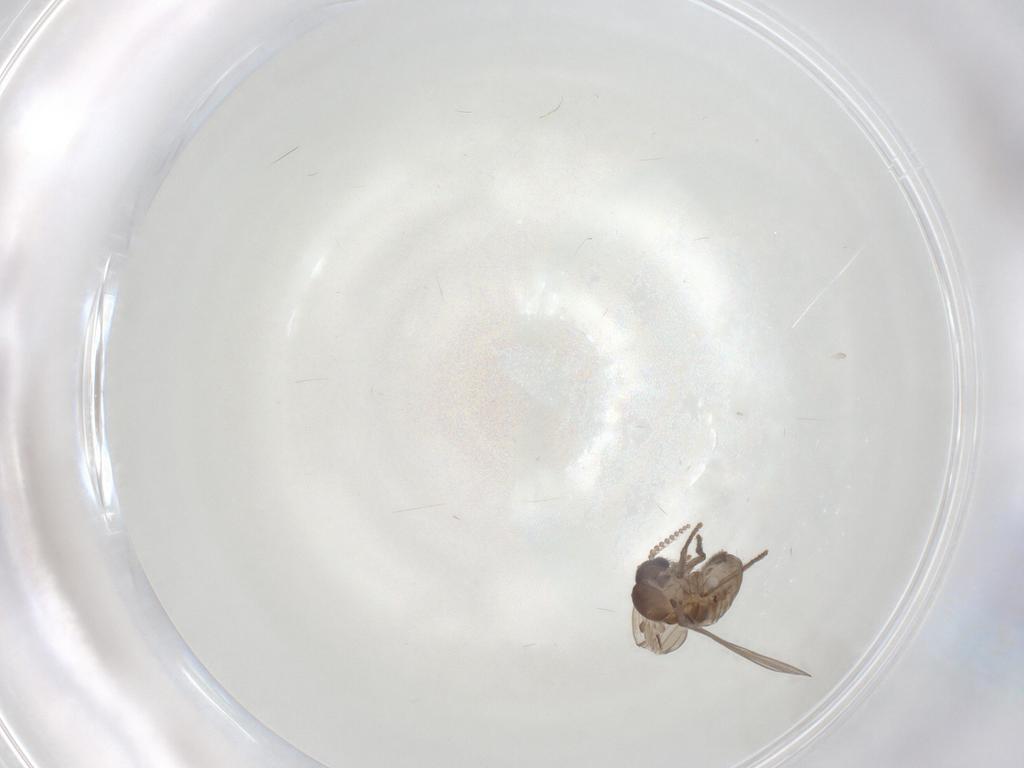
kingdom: Animalia
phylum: Arthropoda
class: Insecta
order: Diptera
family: Psychodidae
